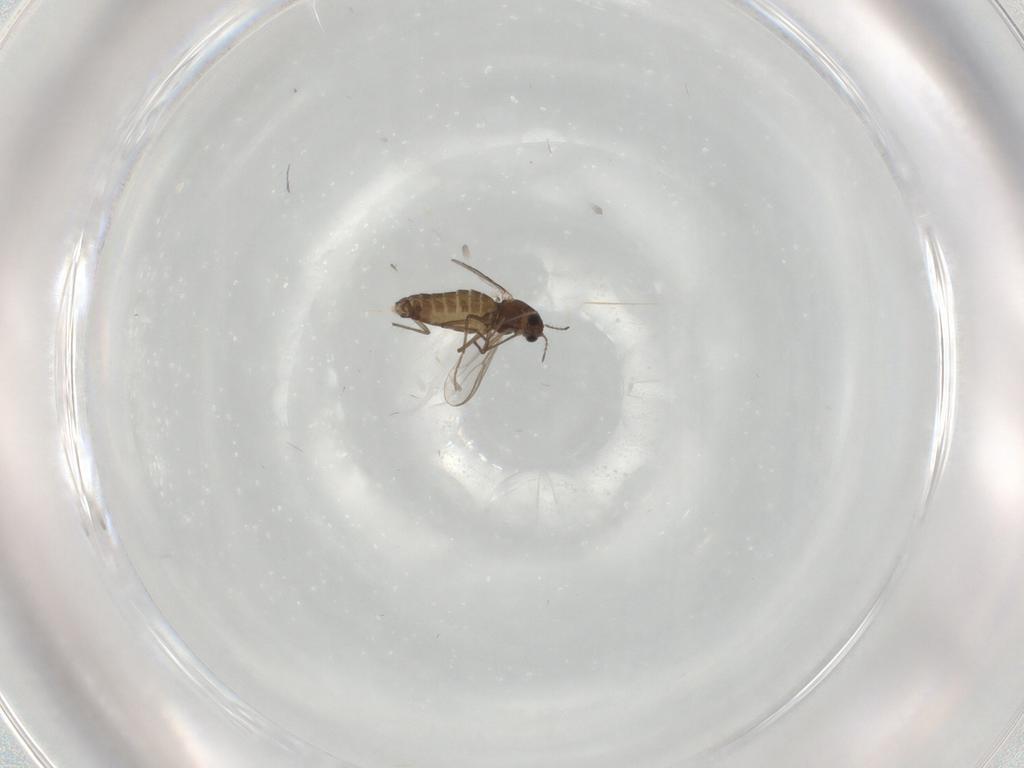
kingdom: Animalia
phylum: Arthropoda
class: Insecta
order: Diptera
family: Chironomidae
